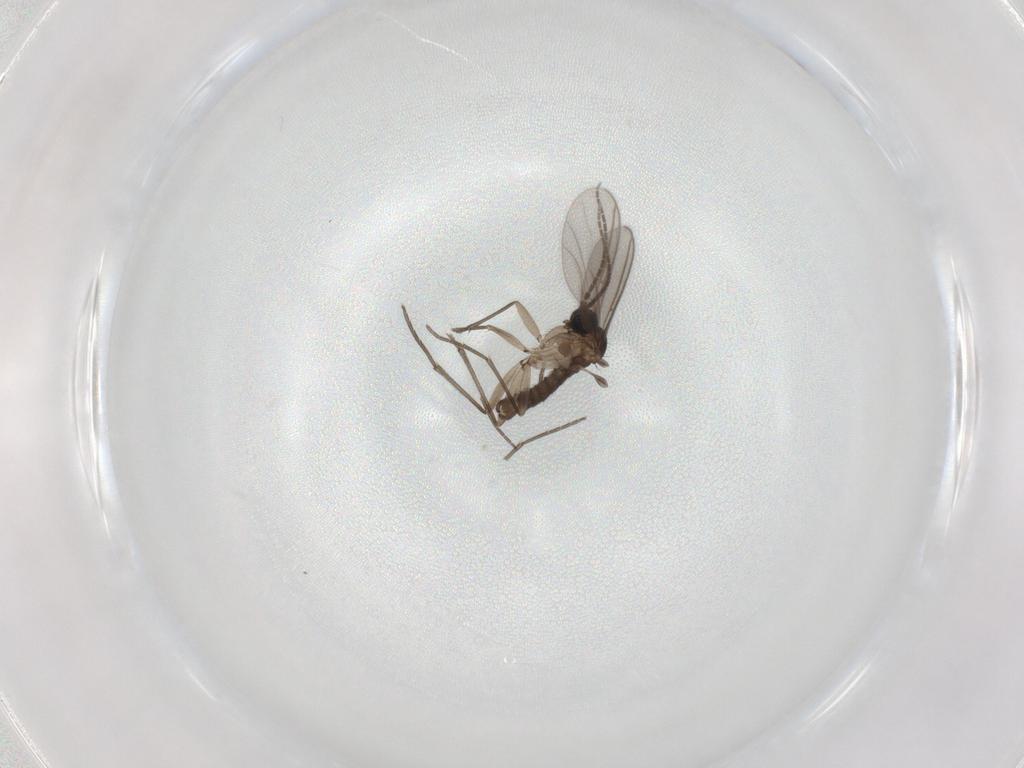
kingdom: Animalia
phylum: Arthropoda
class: Insecta
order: Diptera
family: Sciaridae
